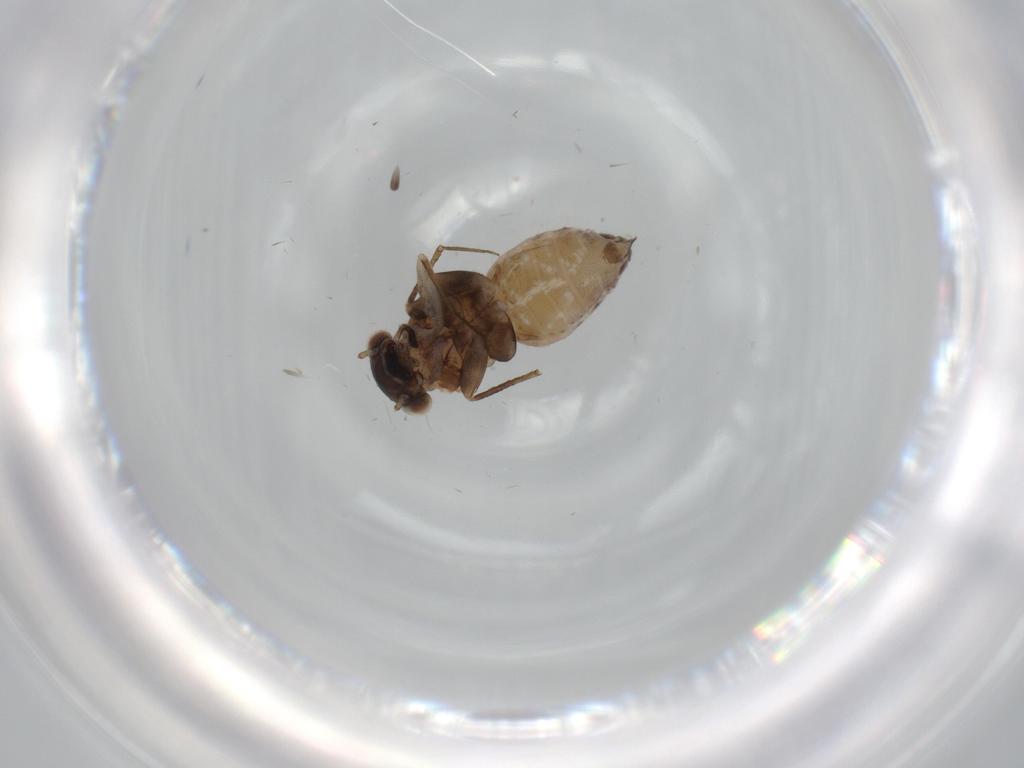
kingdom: Animalia
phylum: Arthropoda
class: Insecta
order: Psocodea
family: Lepidopsocidae
